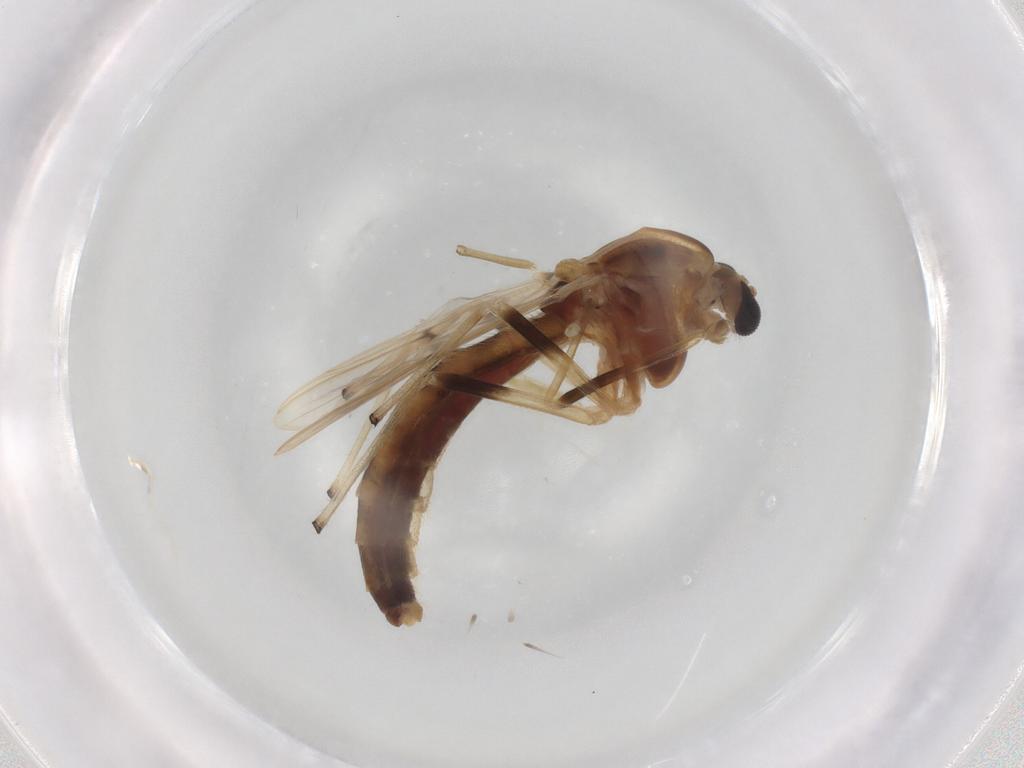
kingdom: Animalia
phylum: Arthropoda
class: Insecta
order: Diptera
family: Chironomidae
